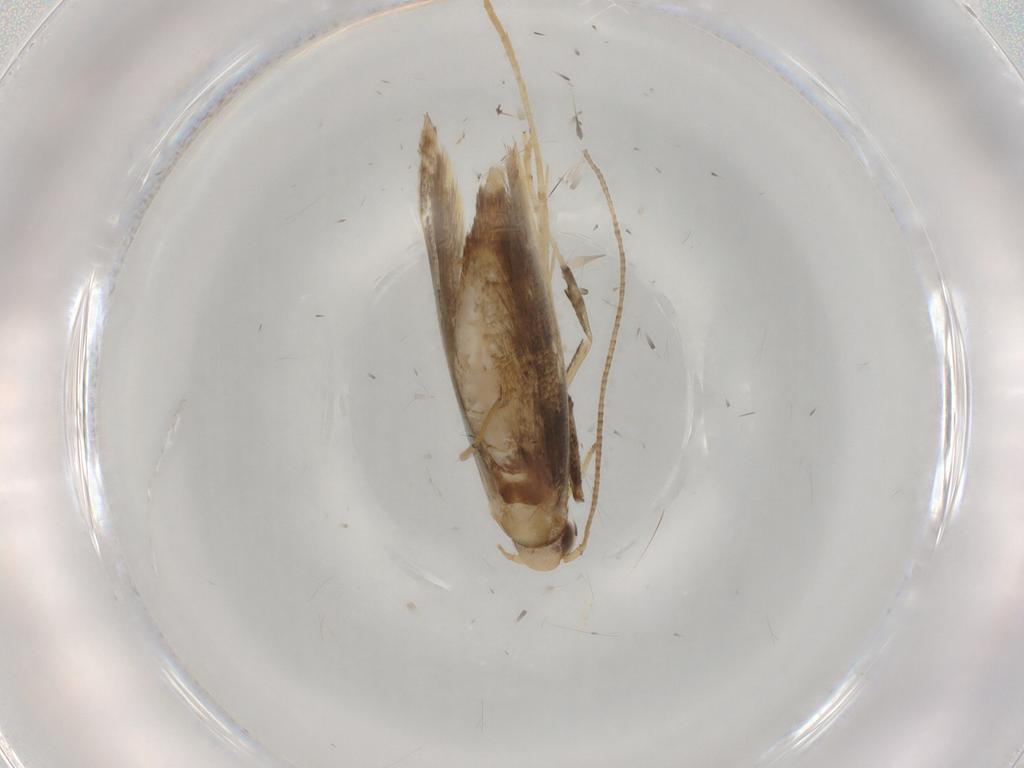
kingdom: Animalia
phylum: Arthropoda
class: Insecta
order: Lepidoptera
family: Gracillariidae
